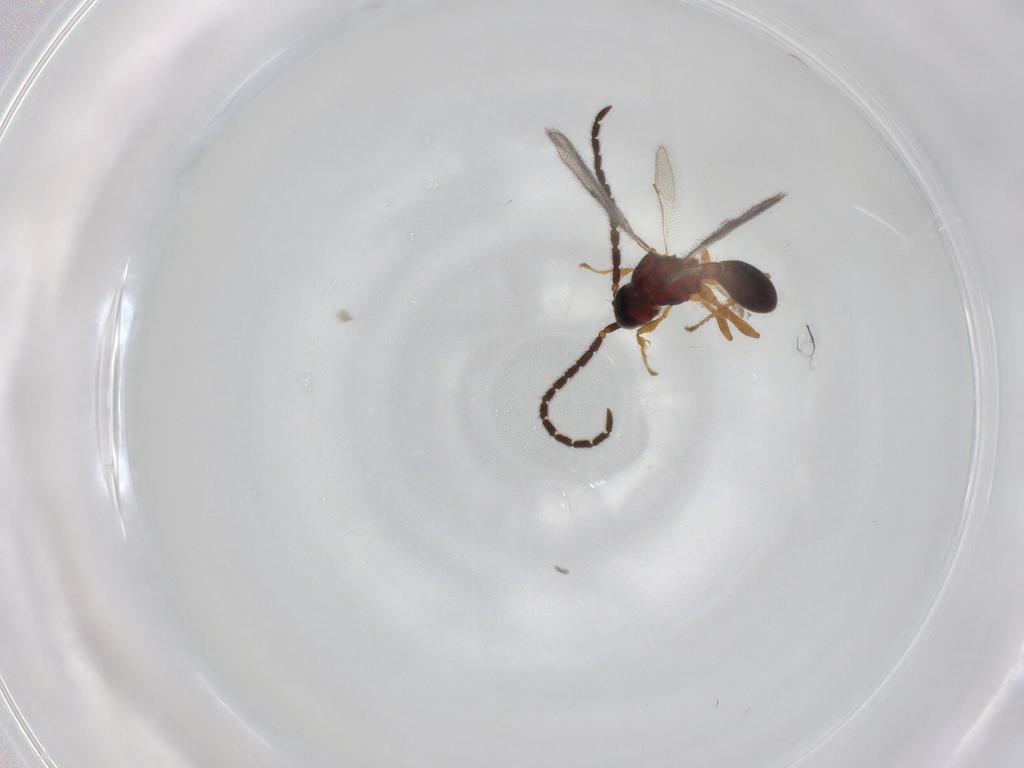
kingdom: Animalia
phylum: Arthropoda
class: Insecta
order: Hymenoptera
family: Diapriidae
